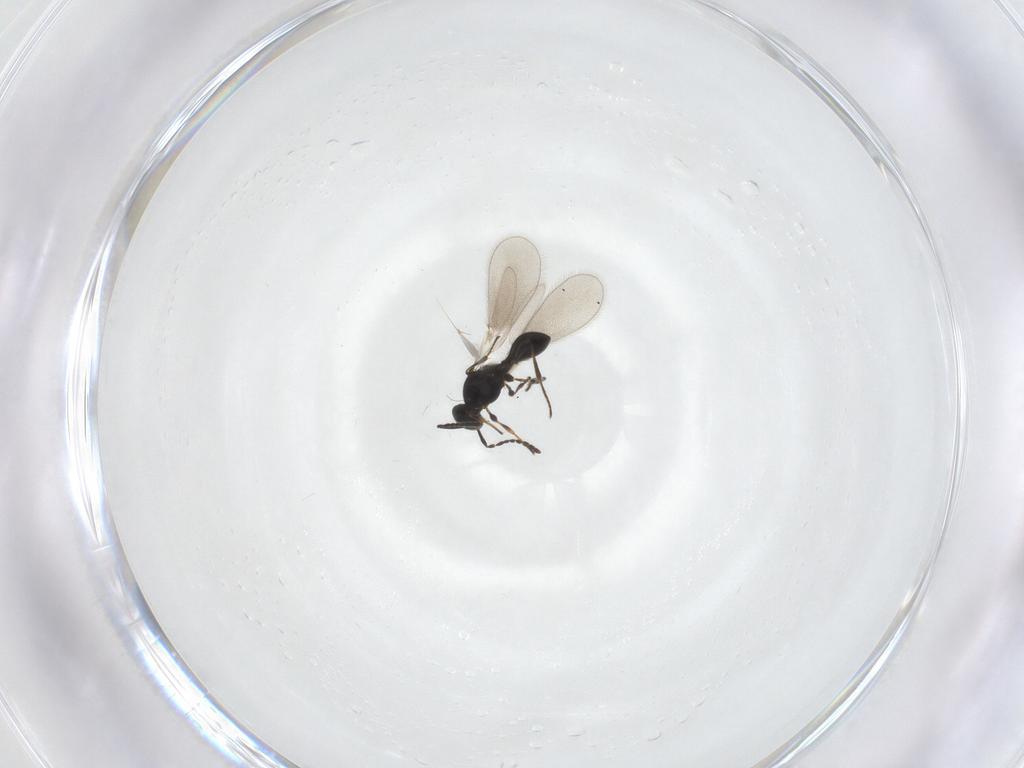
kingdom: Animalia
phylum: Arthropoda
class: Insecta
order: Hymenoptera
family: Platygastridae
